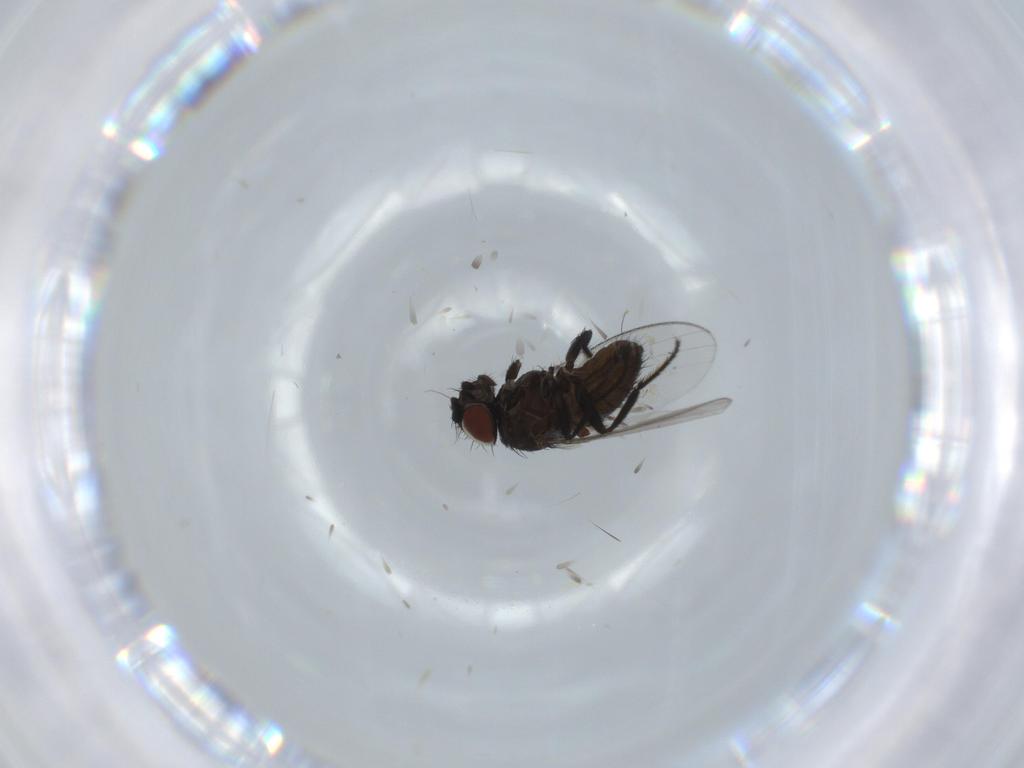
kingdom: Animalia
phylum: Arthropoda
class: Insecta
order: Diptera
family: Milichiidae
